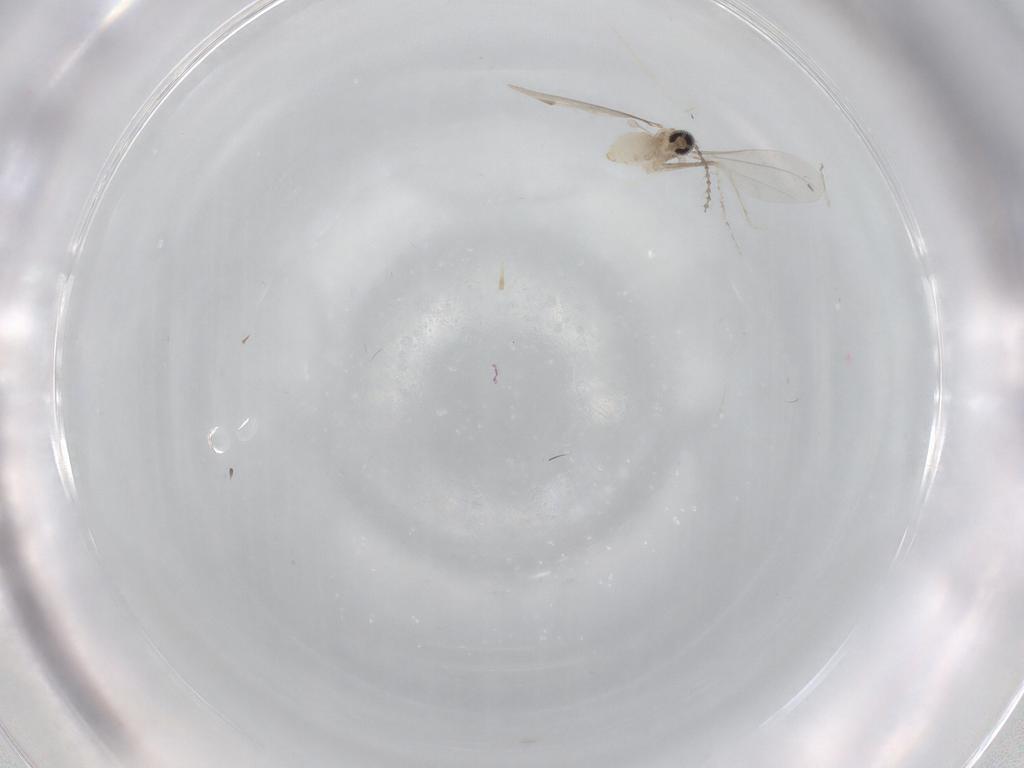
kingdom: Animalia
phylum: Arthropoda
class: Insecta
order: Diptera
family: Cecidomyiidae
